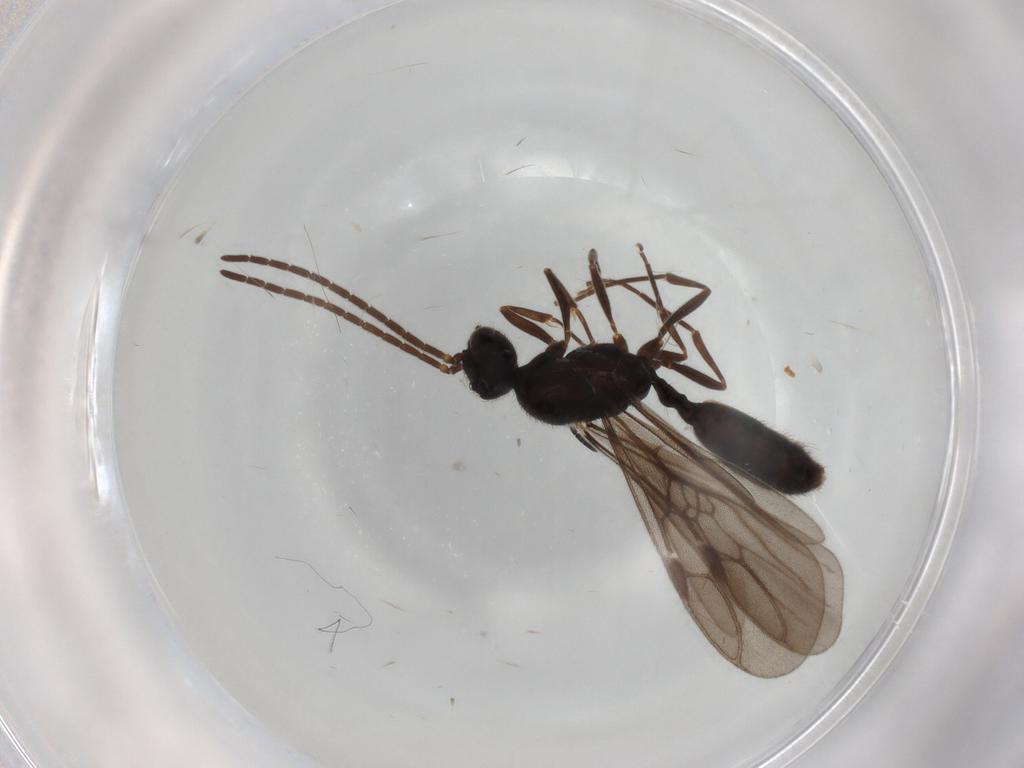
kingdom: Animalia
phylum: Arthropoda
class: Insecta
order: Hymenoptera
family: Formicidae
